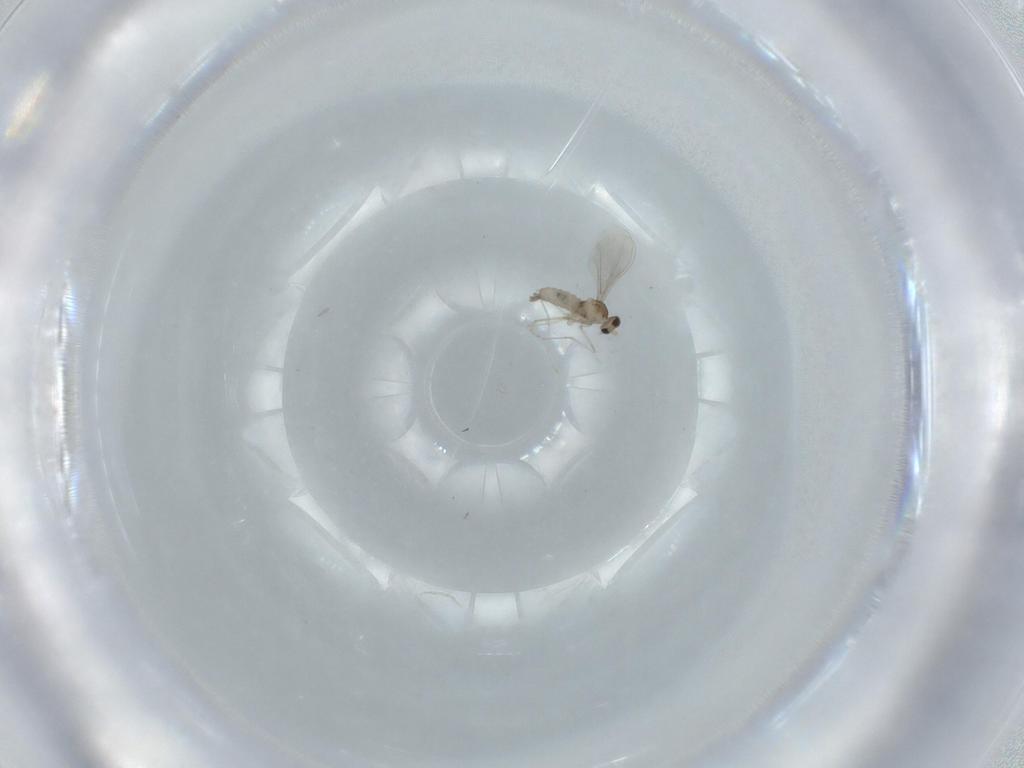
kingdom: Animalia
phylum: Arthropoda
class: Insecta
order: Diptera
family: Cecidomyiidae
